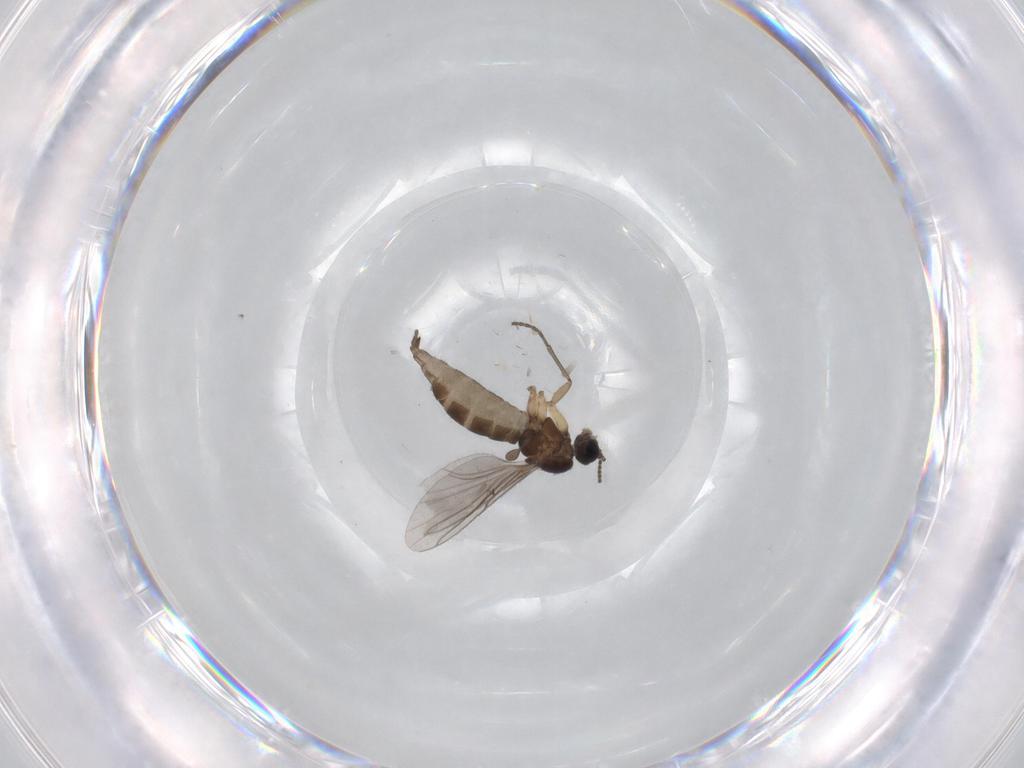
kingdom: Animalia
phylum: Arthropoda
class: Insecta
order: Diptera
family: Sciaridae
